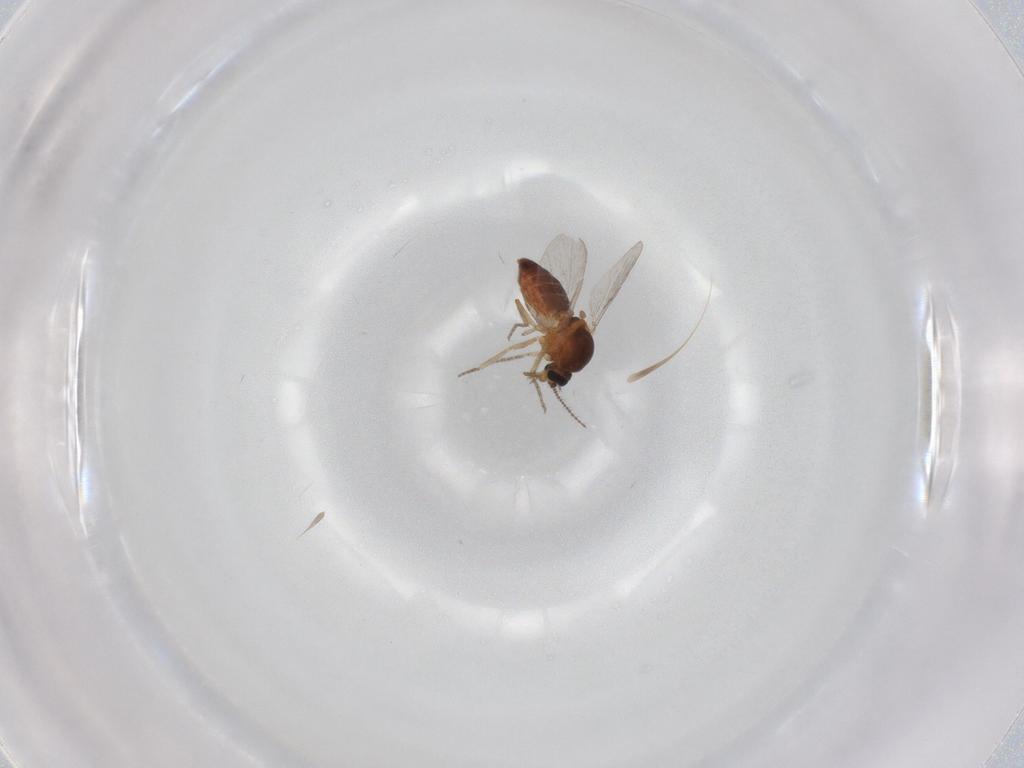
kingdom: Animalia
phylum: Arthropoda
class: Insecta
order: Diptera
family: Ceratopogonidae
